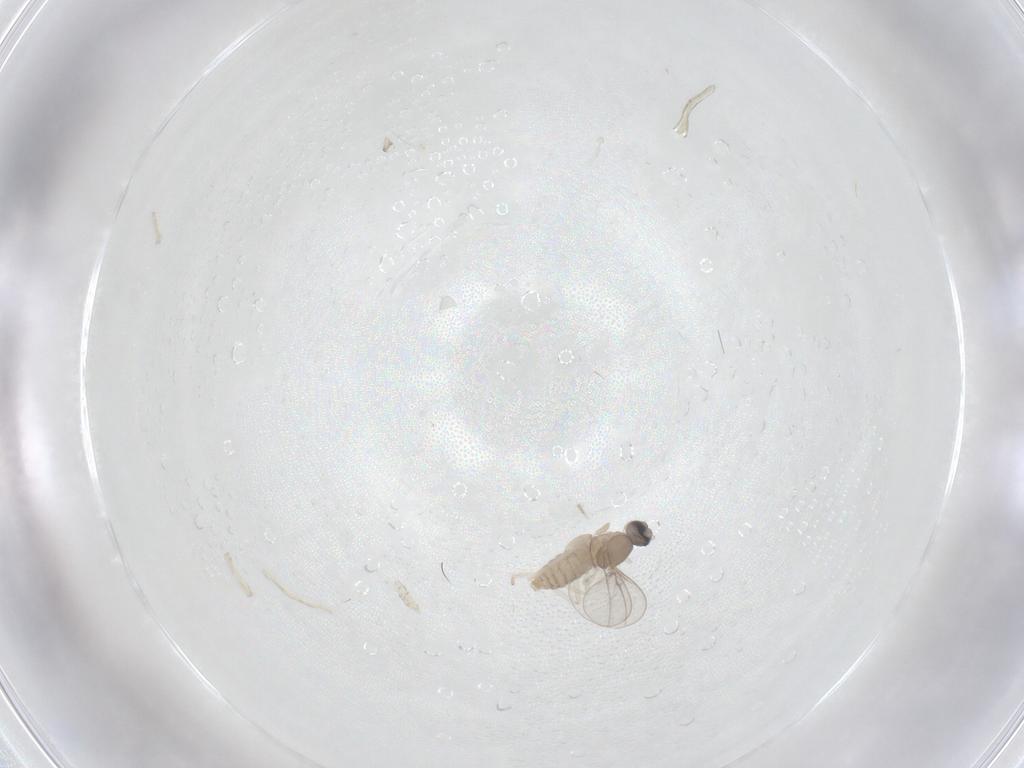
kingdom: Animalia
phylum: Arthropoda
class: Insecta
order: Diptera
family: Cecidomyiidae
